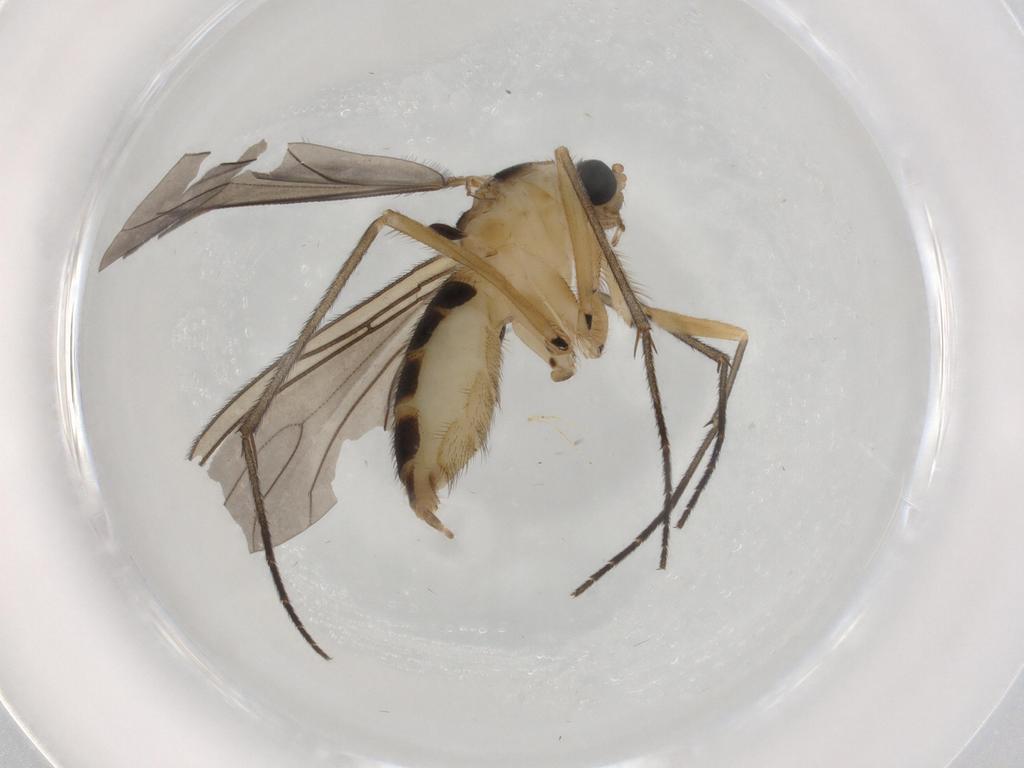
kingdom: Animalia
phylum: Arthropoda
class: Insecta
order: Diptera
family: Sciaridae
